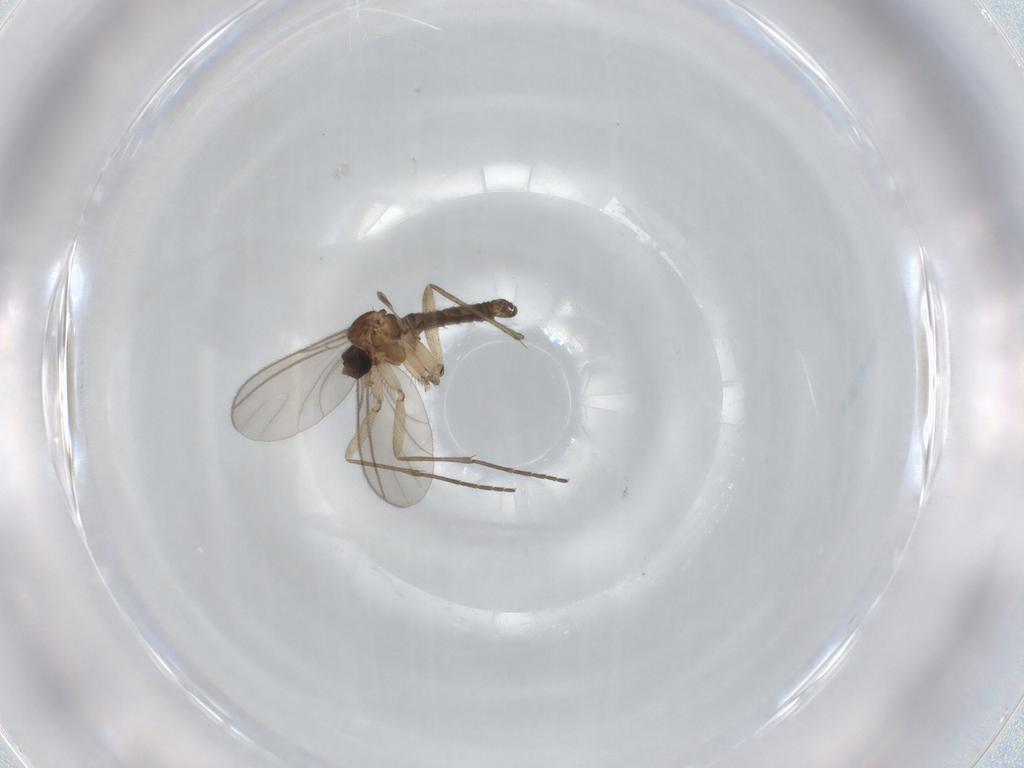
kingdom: Animalia
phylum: Arthropoda
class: Insecta
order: Diptera
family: Sciaridae
